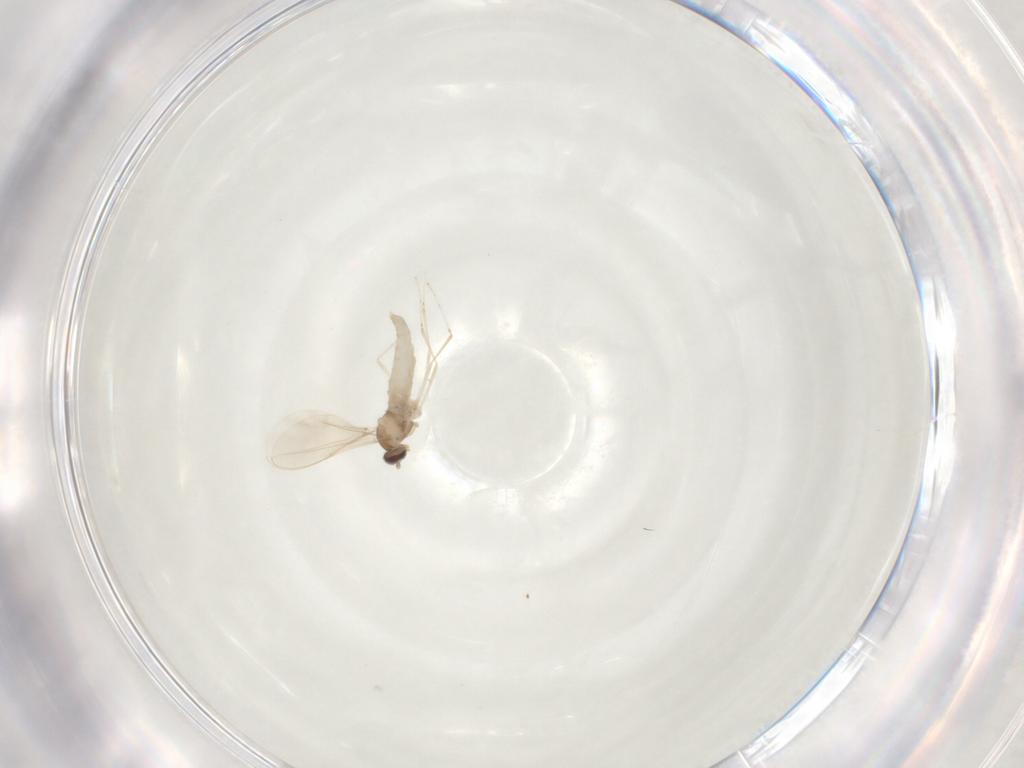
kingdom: Animalia
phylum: Arthropoda
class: Insecta
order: Diptera
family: Cecidomyiidae
